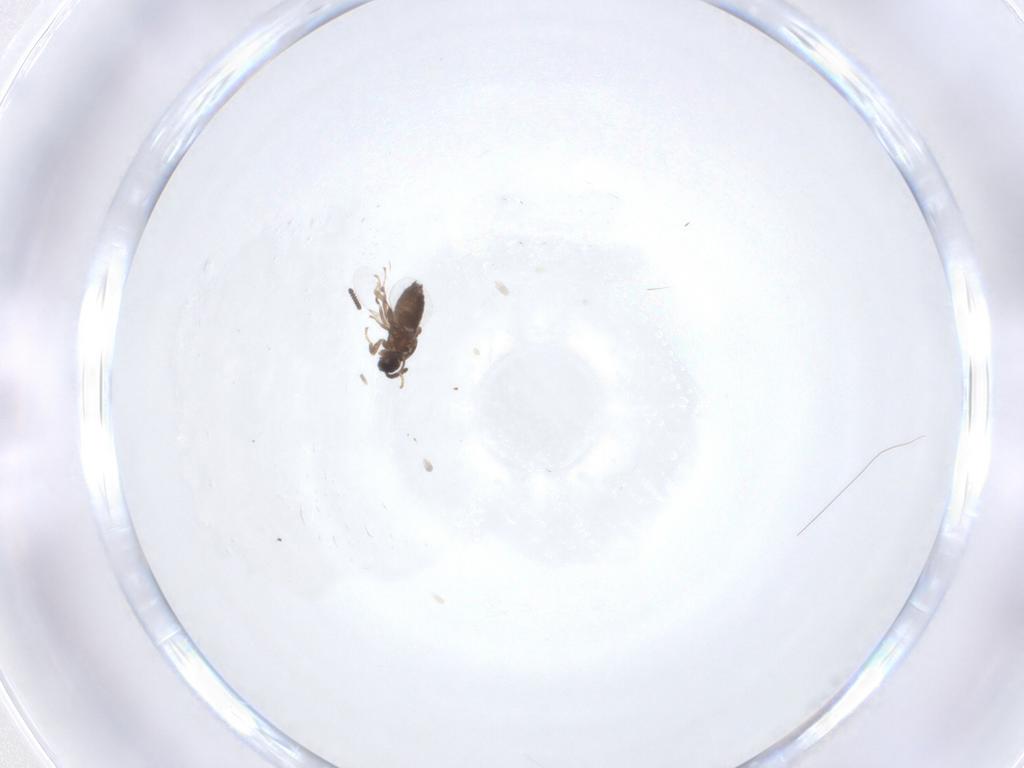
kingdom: Animalia
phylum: Arthropoda
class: Insecta
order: Diptera
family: Scatopsidae
